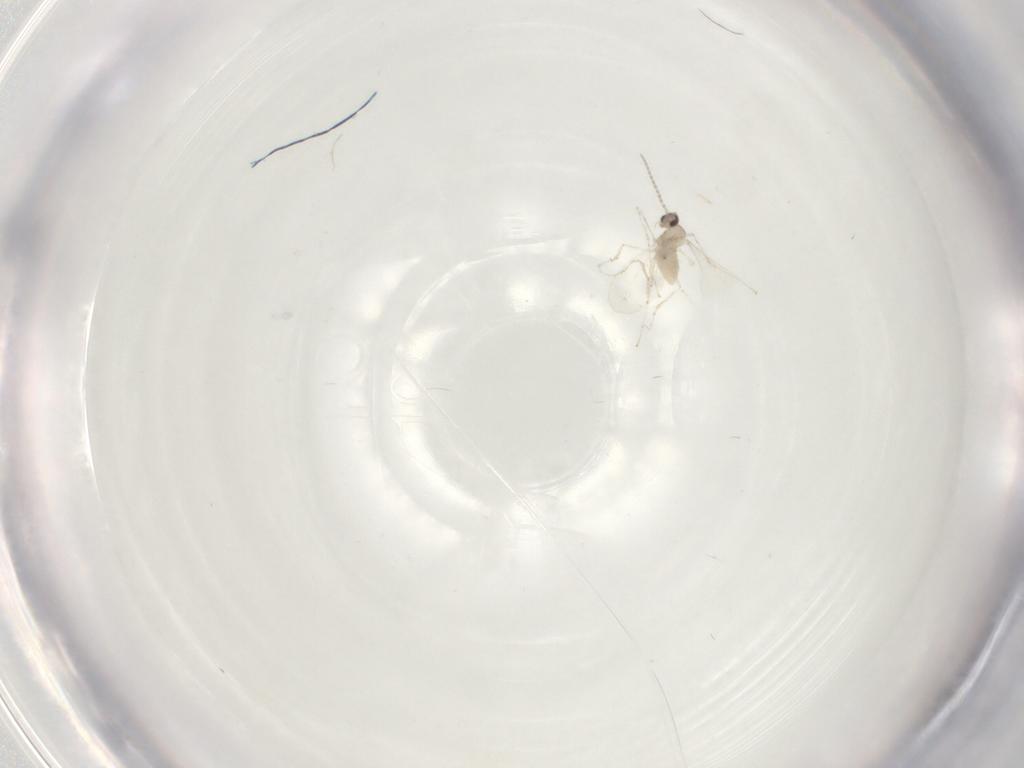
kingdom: Animalia
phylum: Arthropoda
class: Insecta
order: Diptera
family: Cecidomyiidae
